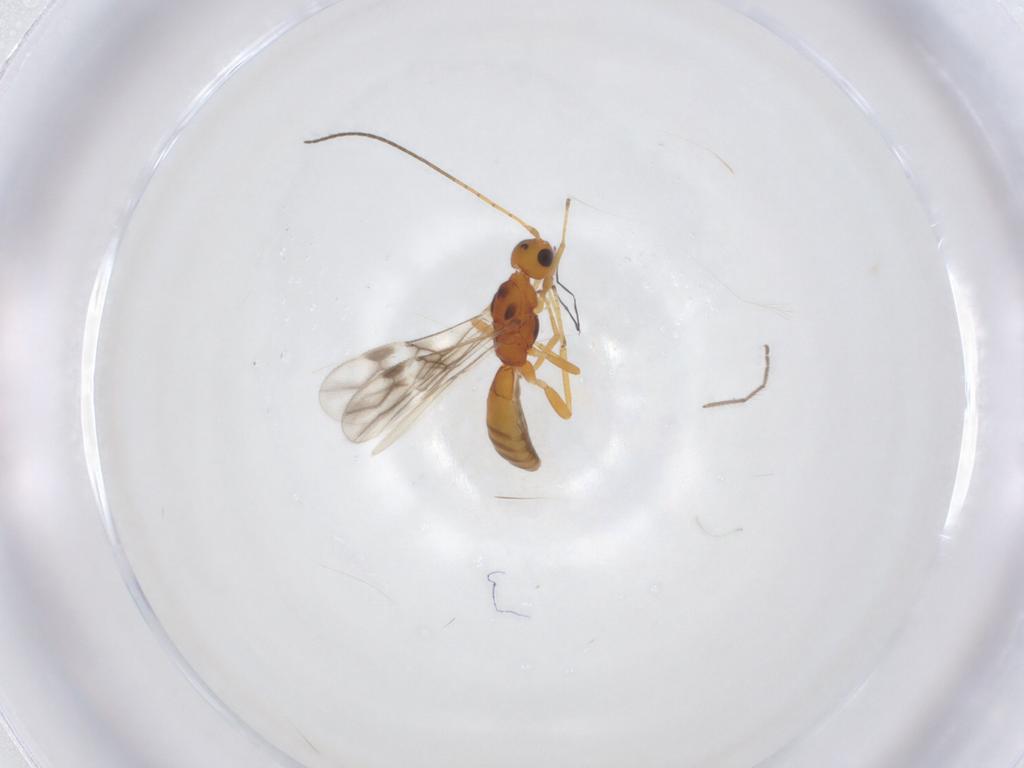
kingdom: Animalia
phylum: Arthropoda
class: Insecta
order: Hymenoptera
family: Braconidae
